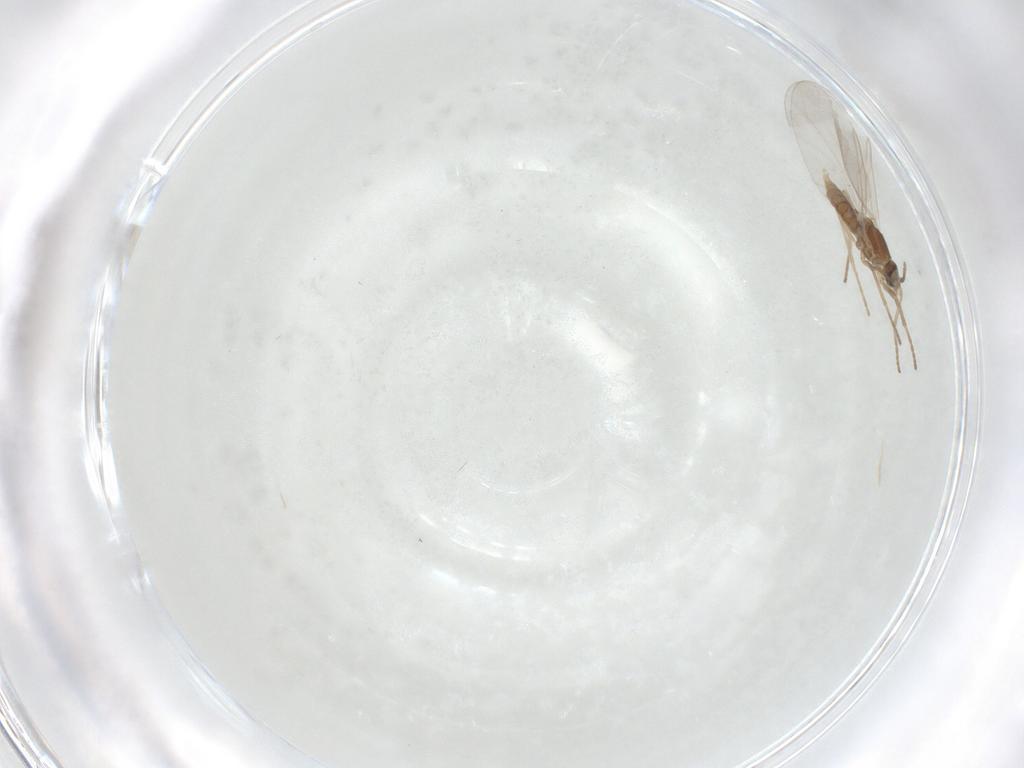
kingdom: Animalia
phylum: Arthropoda
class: Insecta
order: Diptera
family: Cecidomyiidae
